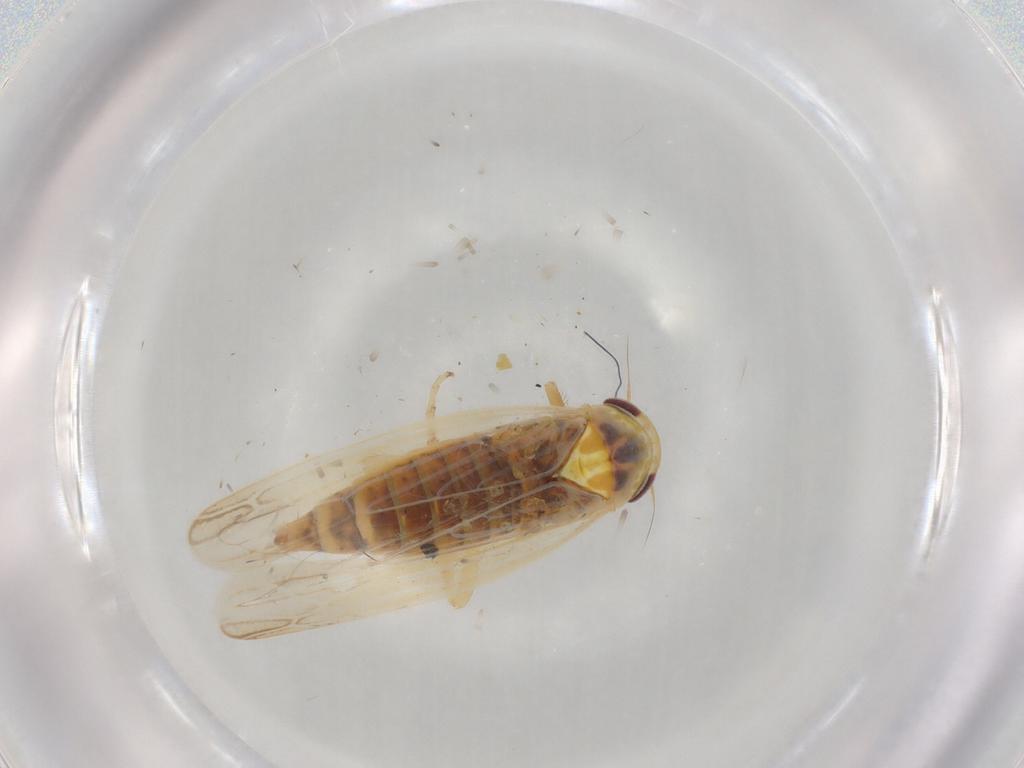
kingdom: Animalia
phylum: Arthropoda
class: Insecta
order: Hemiptera
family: Cicadellidae
